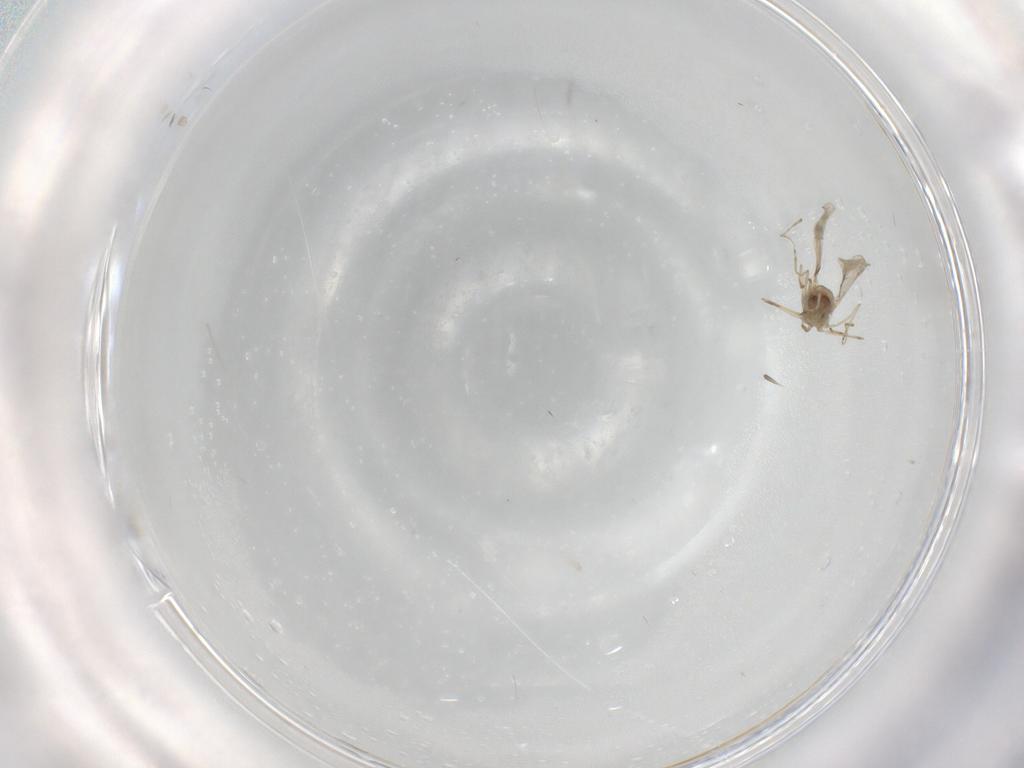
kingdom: Animalia
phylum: Arthropoda
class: Insecta
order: Diptera
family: Cecidomyiidae
